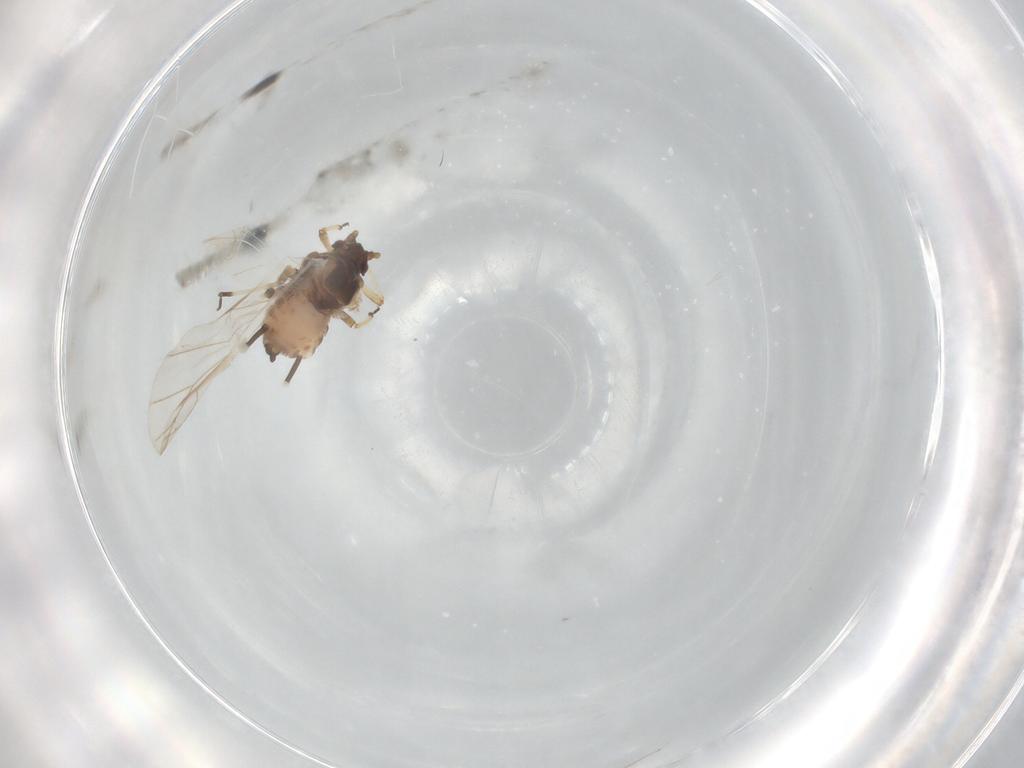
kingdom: Animalia
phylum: Arthropoda
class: Insecta
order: Hemiptera
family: Aphididae
